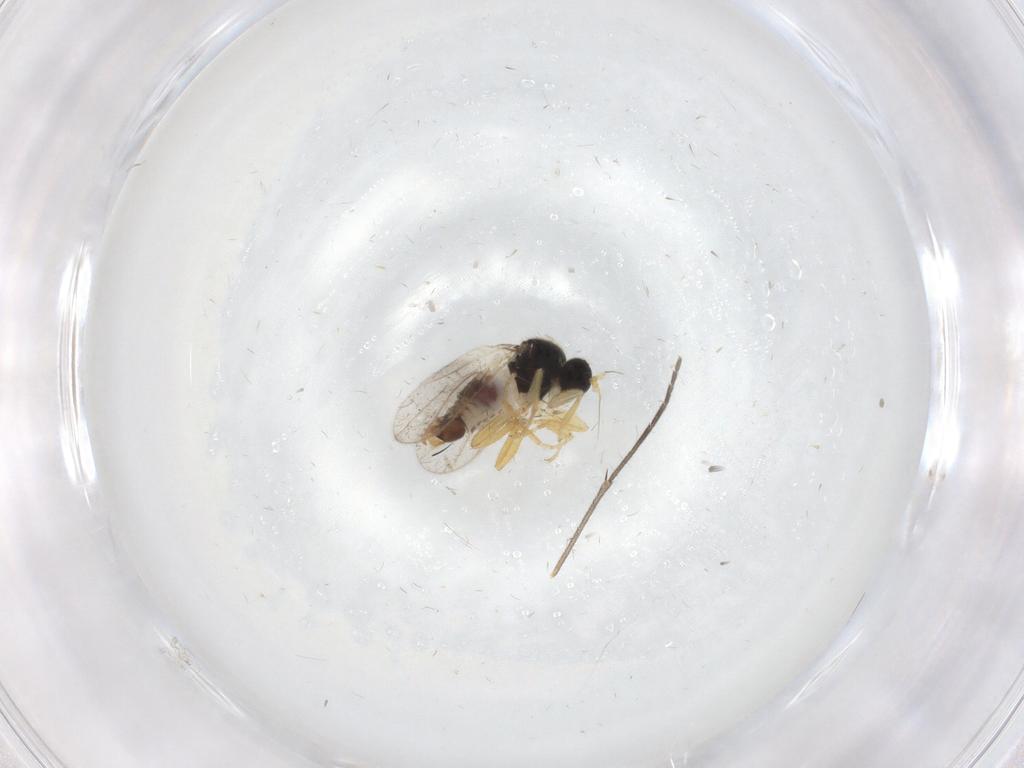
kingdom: Animalia
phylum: Arthropoda
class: Insecta
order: Diptera
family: Hybotidae
